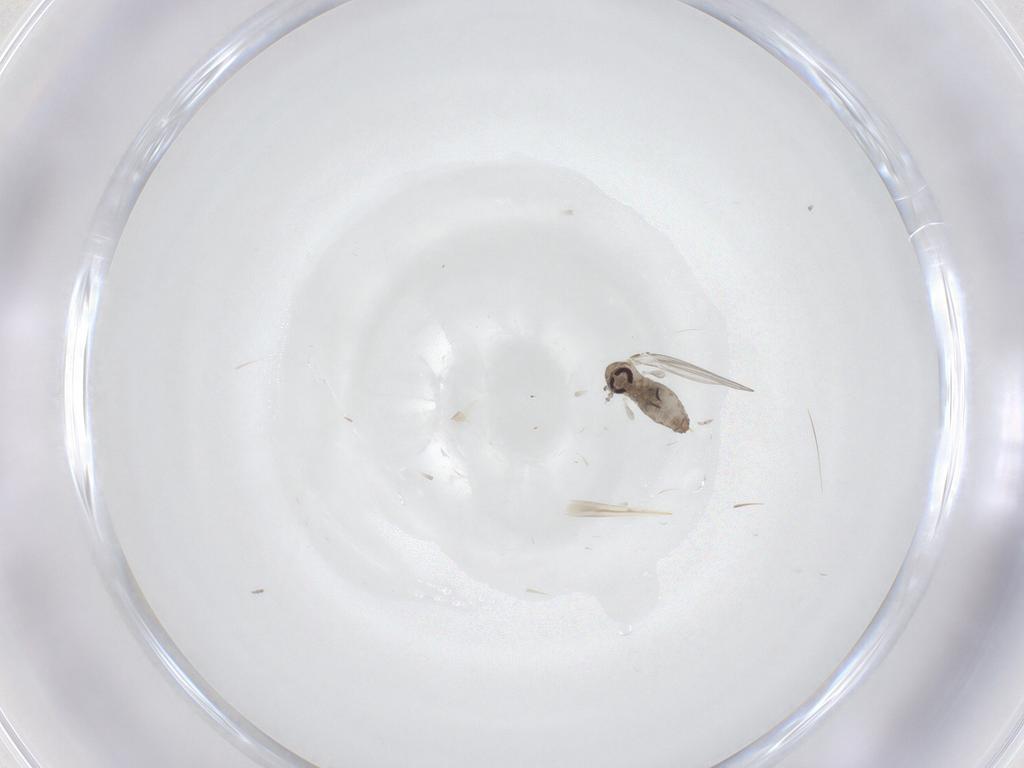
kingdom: Animalia
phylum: Arthropoda
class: Insecta
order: Diptera
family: Psychodidae
